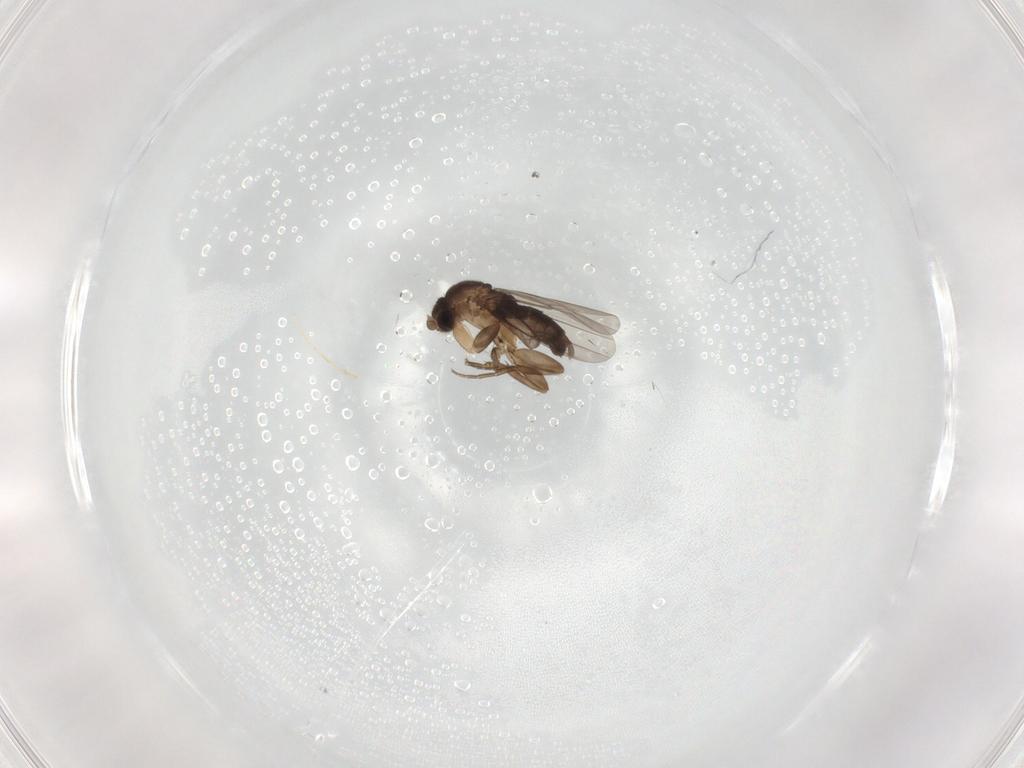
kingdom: Animalia
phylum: Arthropoda
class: Insecta
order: Diptera
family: Phoridae
